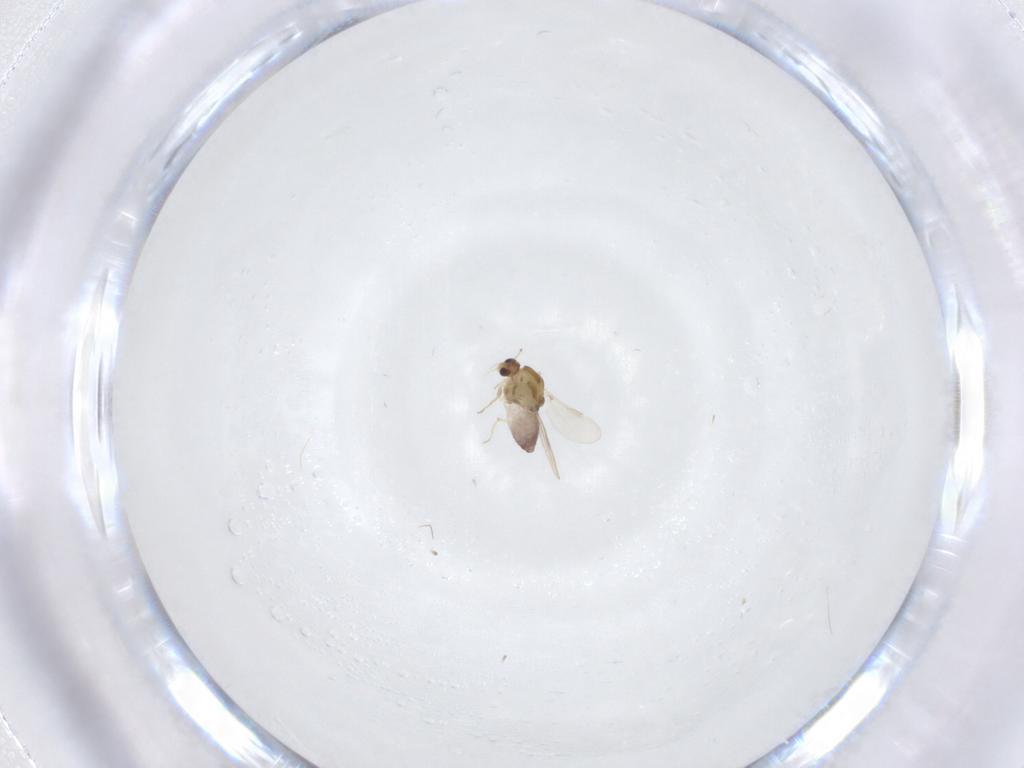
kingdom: Animalia
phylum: Arthropoda
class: Insecta
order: Diptera
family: Chironomidae
